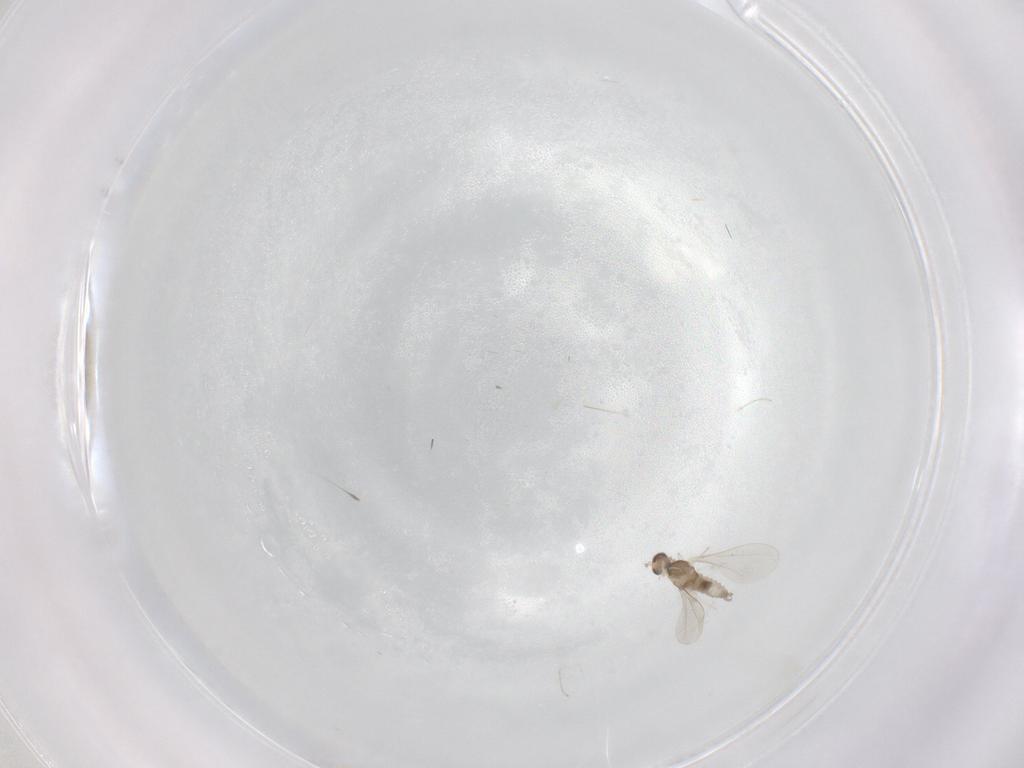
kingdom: Animalia
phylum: Arthropoda
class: Insecta
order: Diptera
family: Cecidomyiidae
